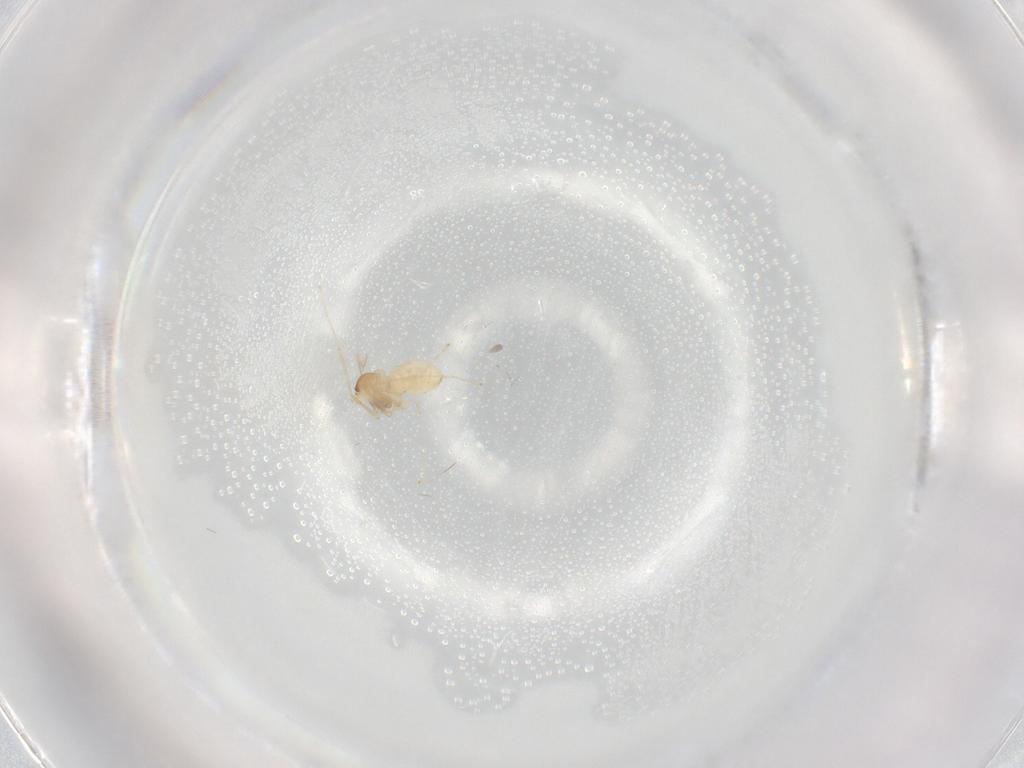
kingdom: Animalia
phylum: Arthropoda
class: Insecta
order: Diptera
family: Cecidomyiidae
